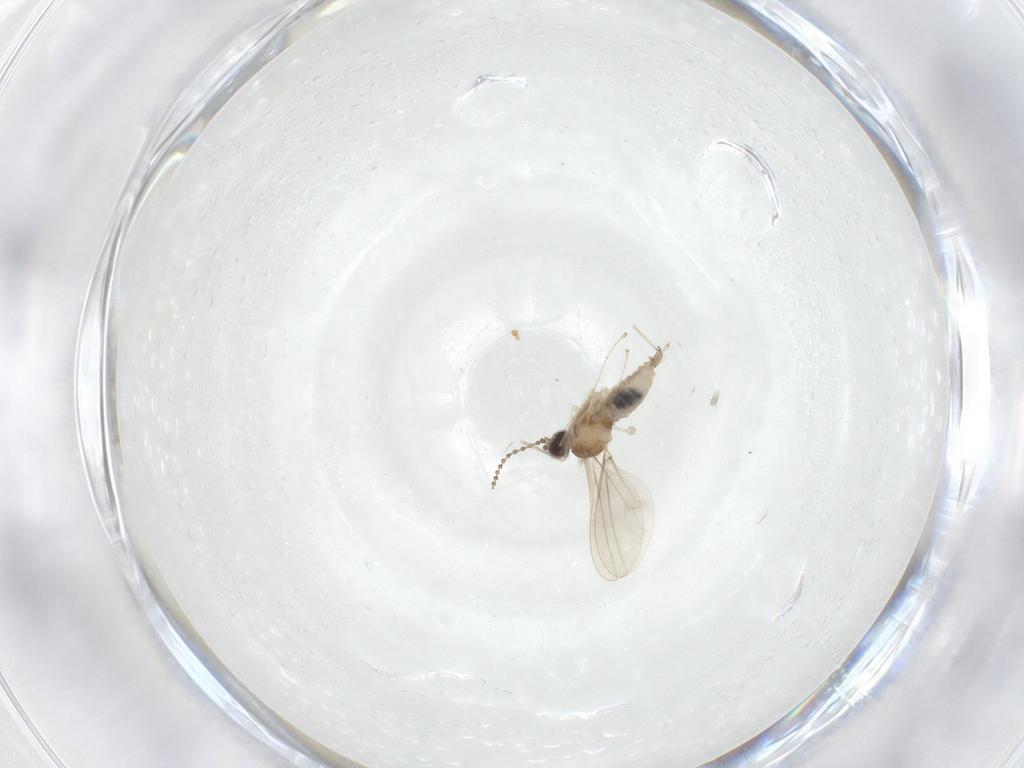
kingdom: Animalia
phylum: Arthropoda
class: Insecta
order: Diptera
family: Cecidomyiidae
